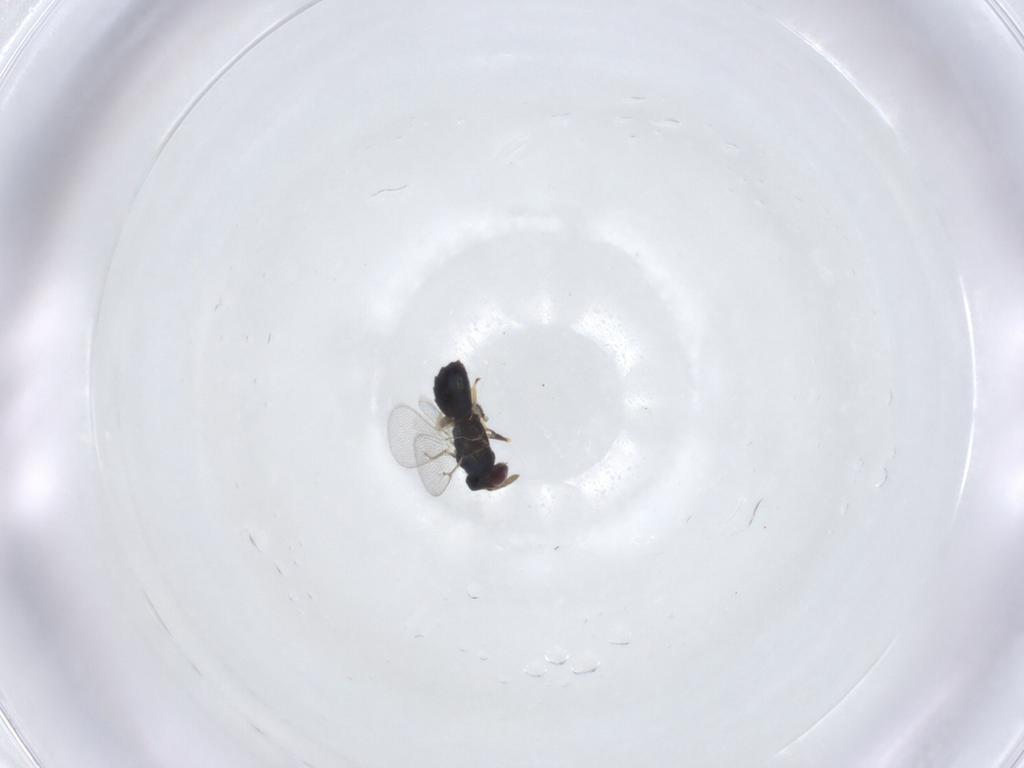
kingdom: Animalia
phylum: Arthropoda
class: Insecta
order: Hymenoptera
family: Eulophidae
